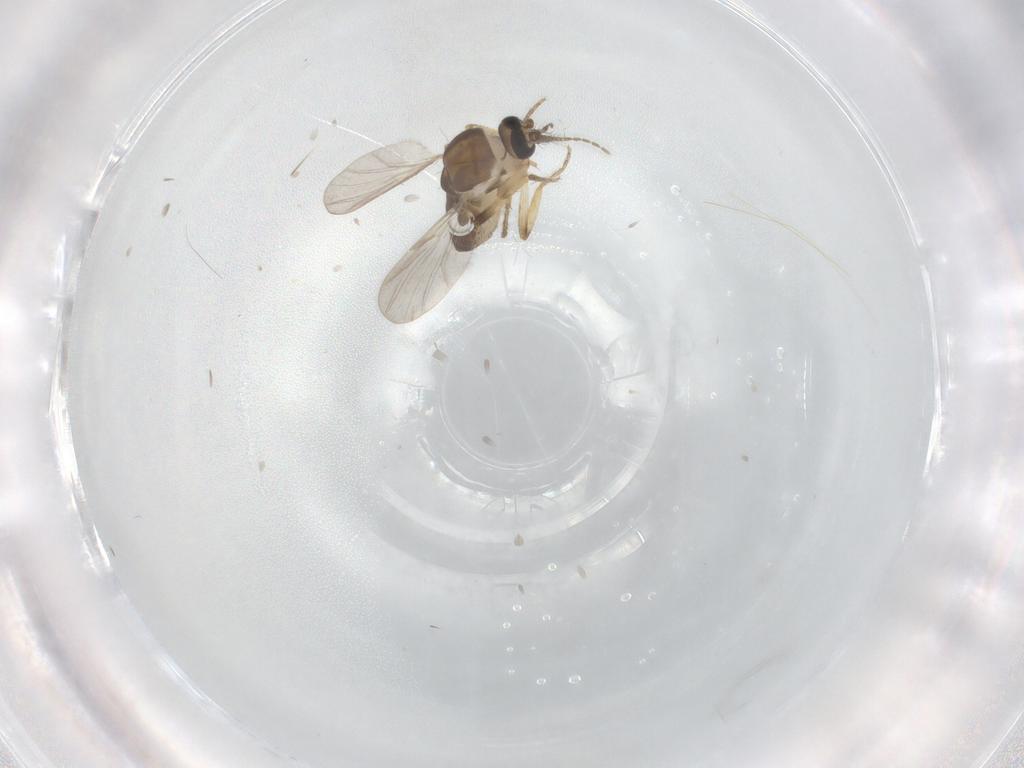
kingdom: Animalia
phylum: Arthropoda
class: Insecta
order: Diptera
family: Ceratopogonidae
